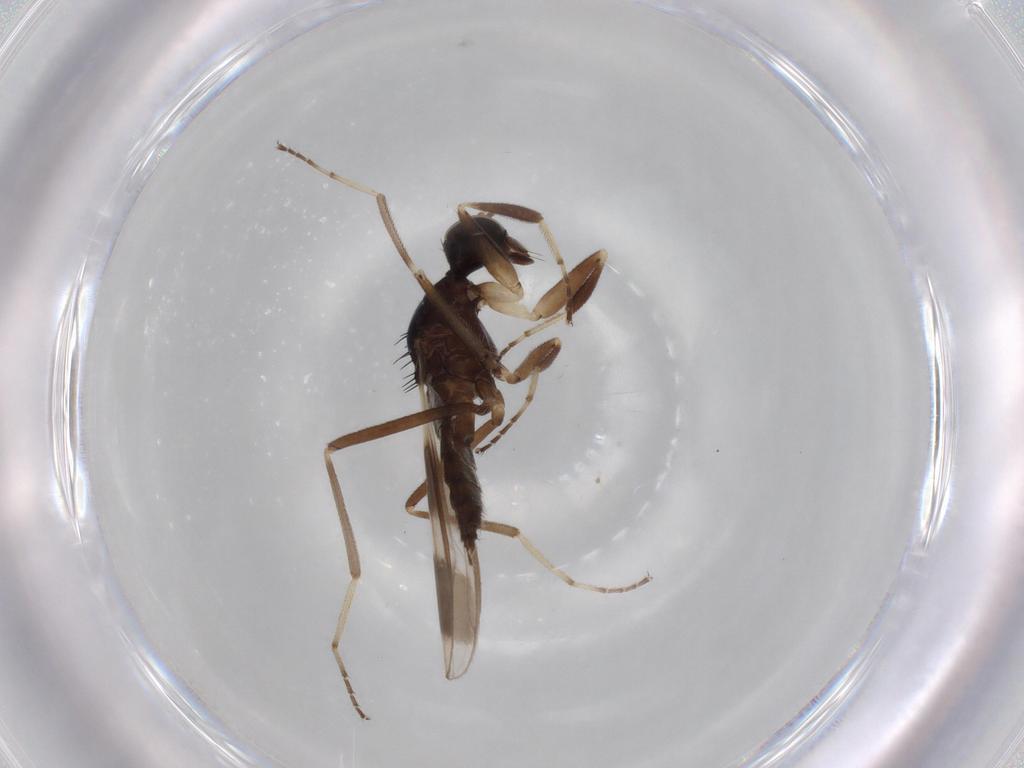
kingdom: Animalia
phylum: Arthropoda
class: Insecta
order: Diptera
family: Hybotidae
